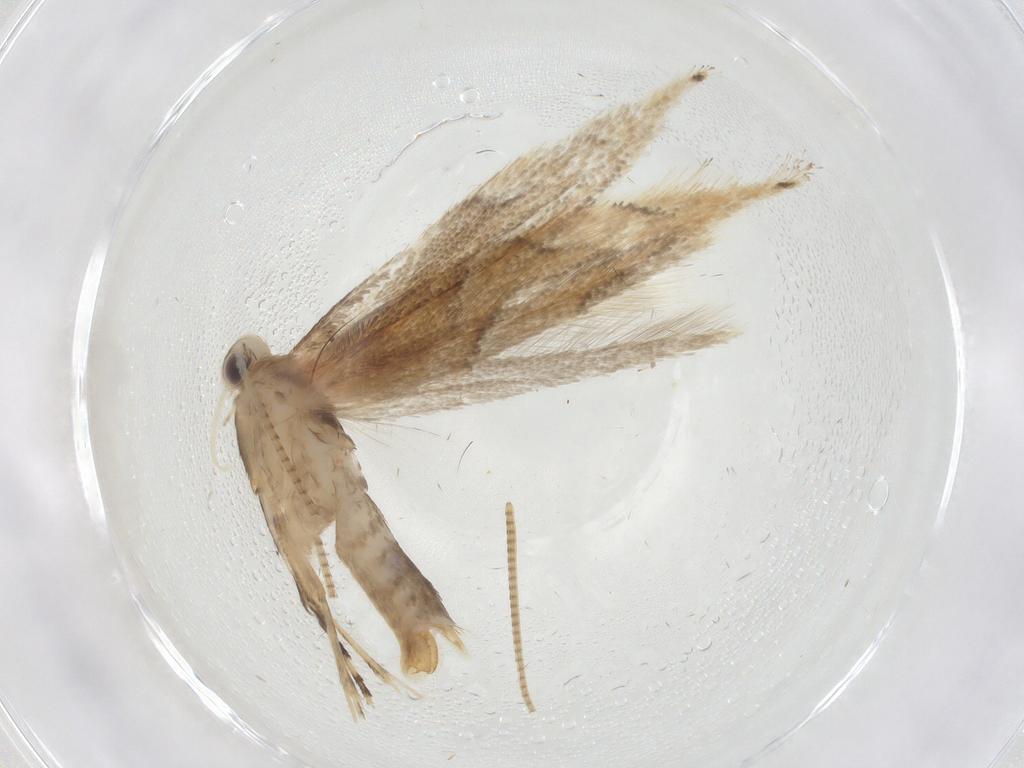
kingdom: Animalia
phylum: Arthropoda
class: Insecta
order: Lepidoptera
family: Gracillariidae
